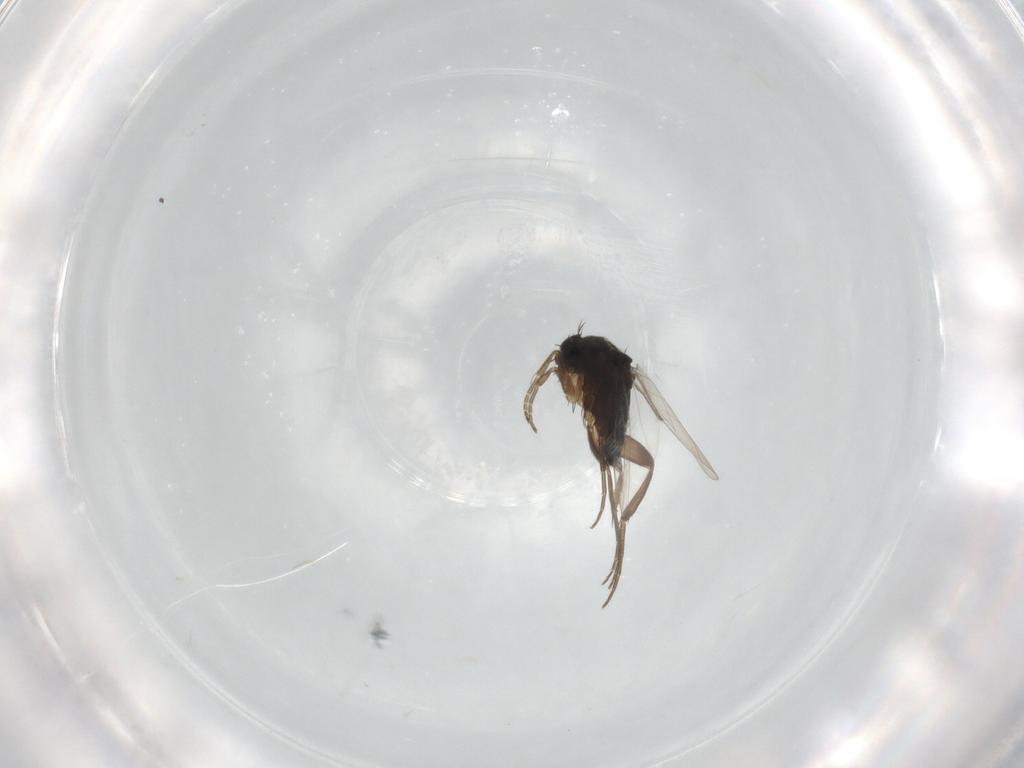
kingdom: Animalia
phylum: Arthropoda
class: Insecta
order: Diptera
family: Phoridae
